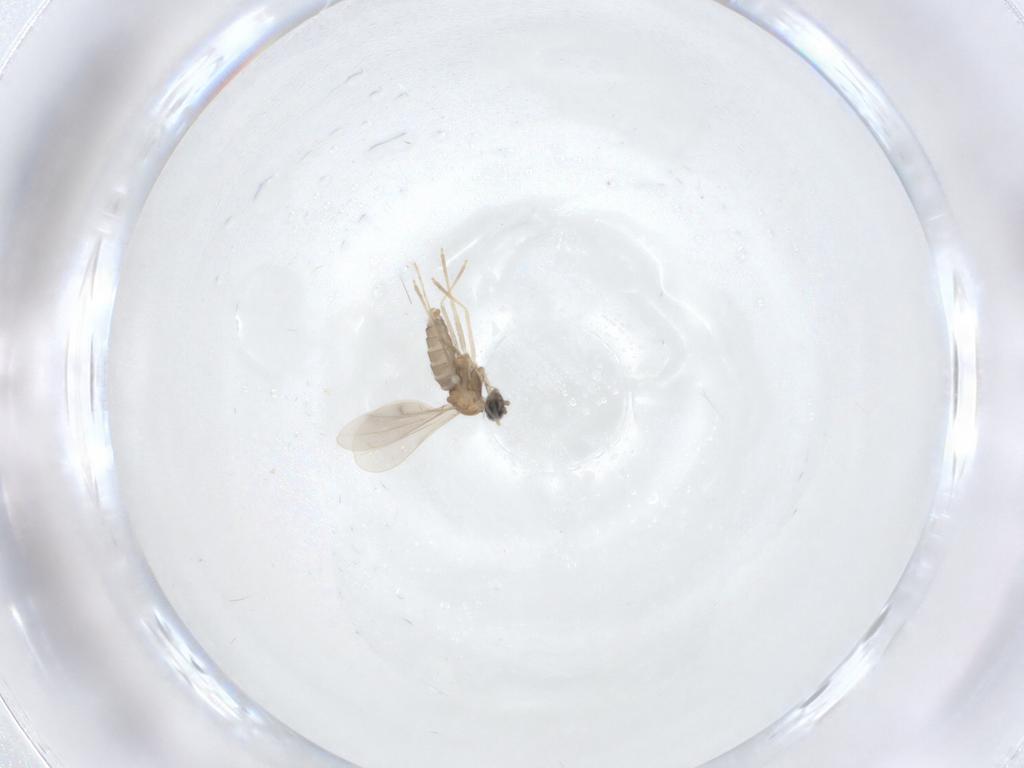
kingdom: Animalia
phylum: Arthropoda
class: Insecta
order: Diptera
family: Cecidomyiidae
